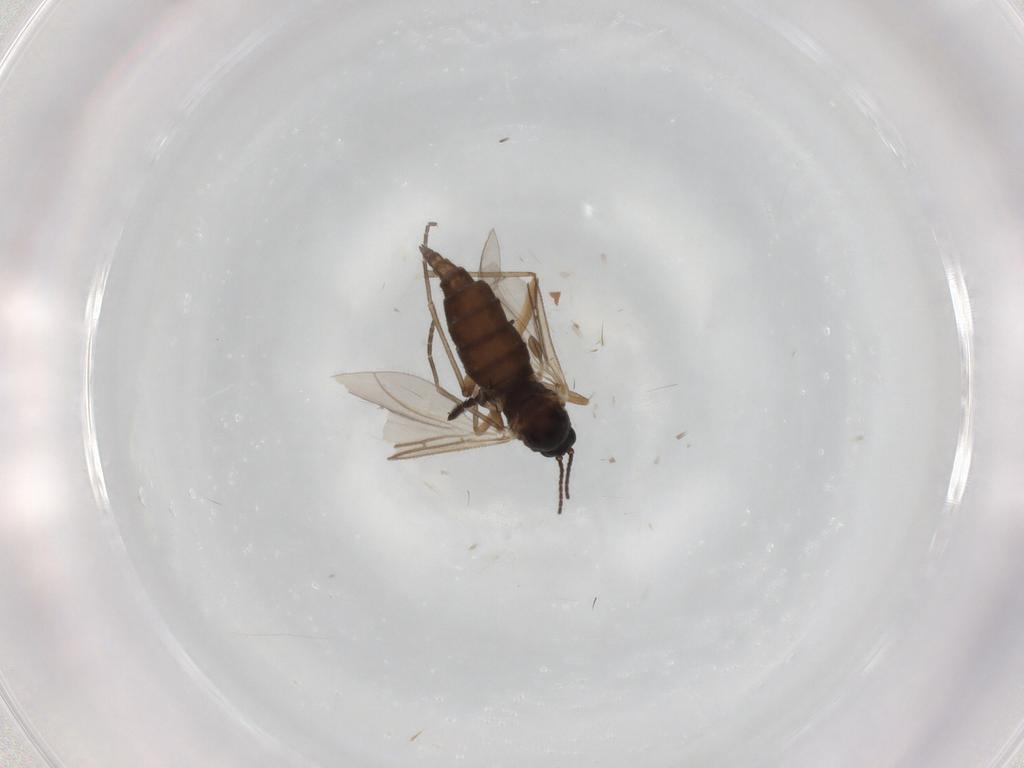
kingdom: Animalia
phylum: Arthropoda
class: Insecta
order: Diptera
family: Sciaridae
